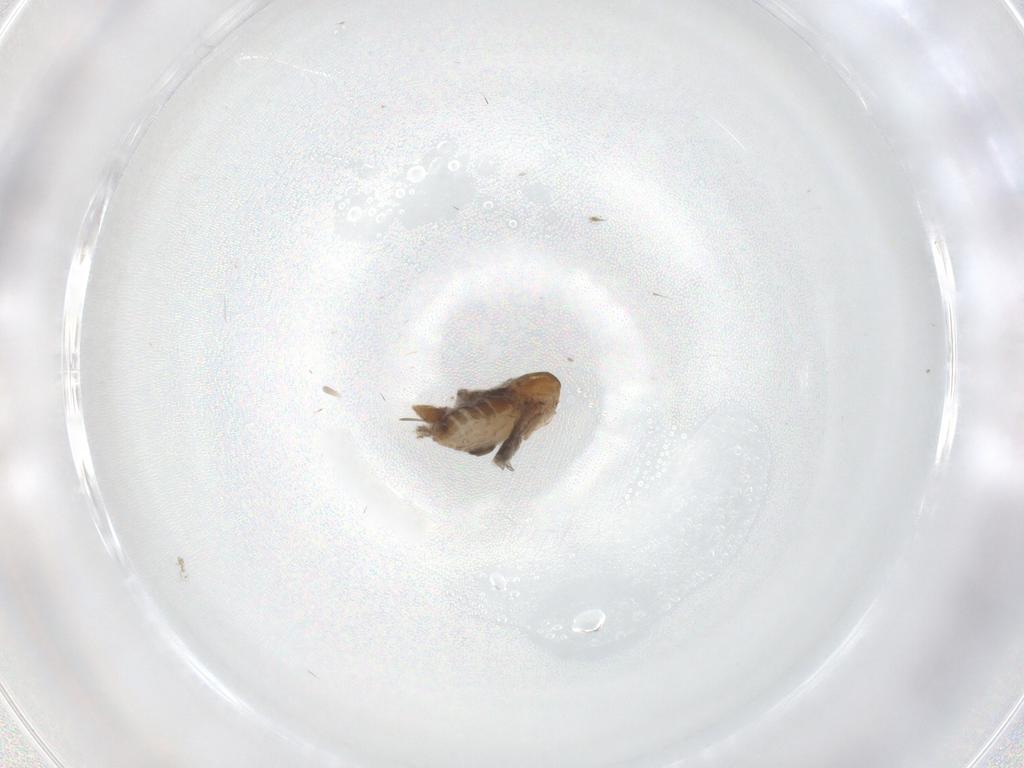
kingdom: Animalia
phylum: Arthropoda
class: Insecta
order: Diptera
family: Ceratopogonidae
